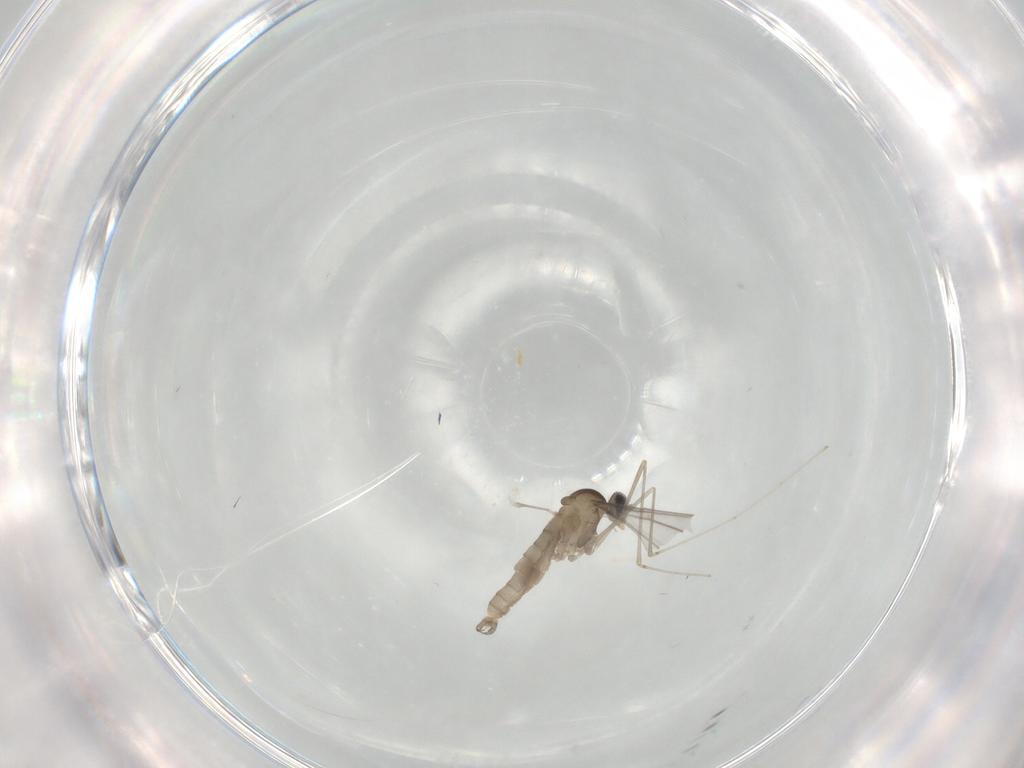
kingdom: Animalia
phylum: Arthropoda
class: Insecta
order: Diptera
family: Cecidomyiidae
